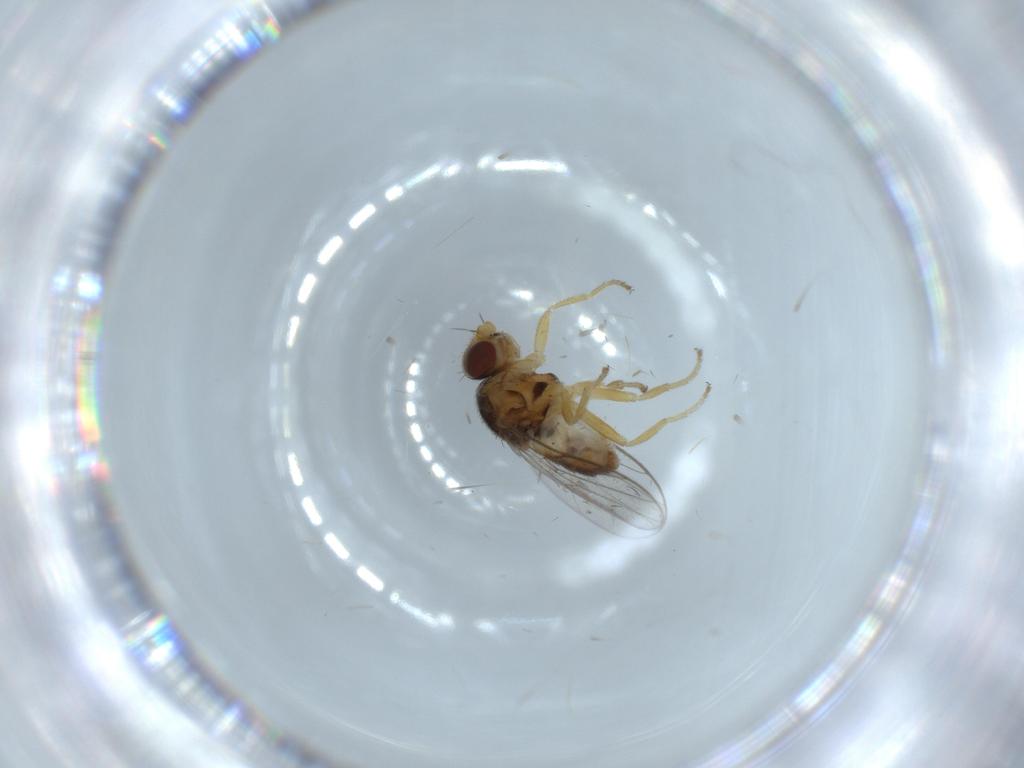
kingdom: Animalia
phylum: Arthropoda
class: Insecta
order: Diptera
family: Chloropidae
